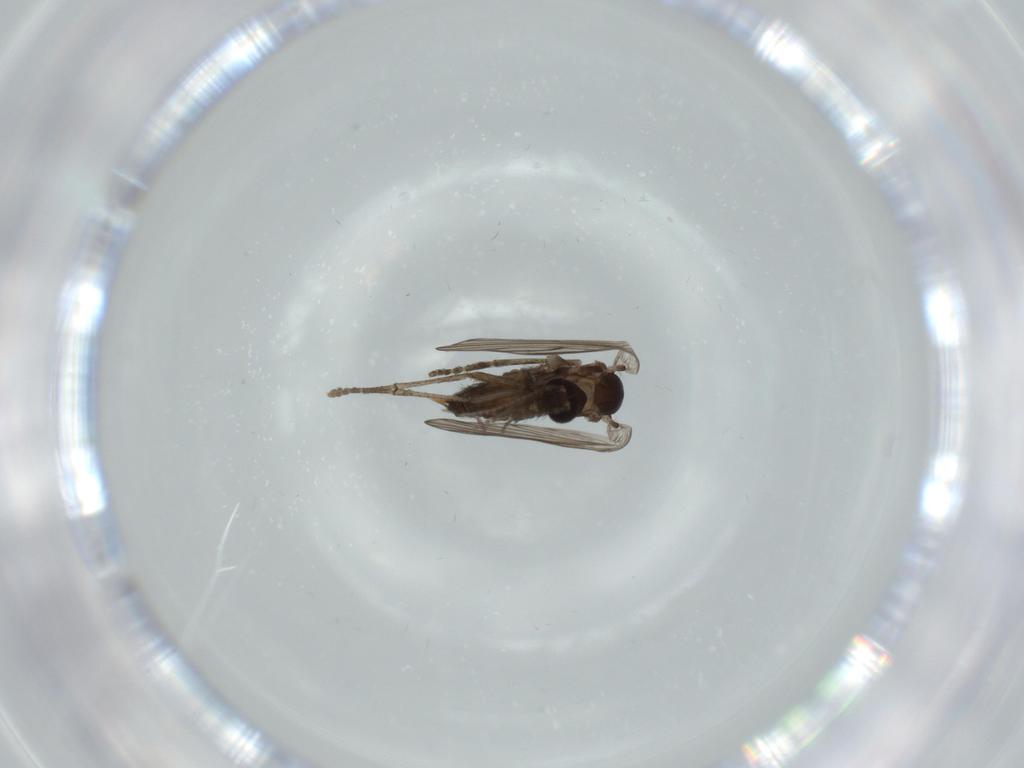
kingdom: Animalia
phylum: Arthropoda
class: Insecta
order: Diptera
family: Psychodidae
